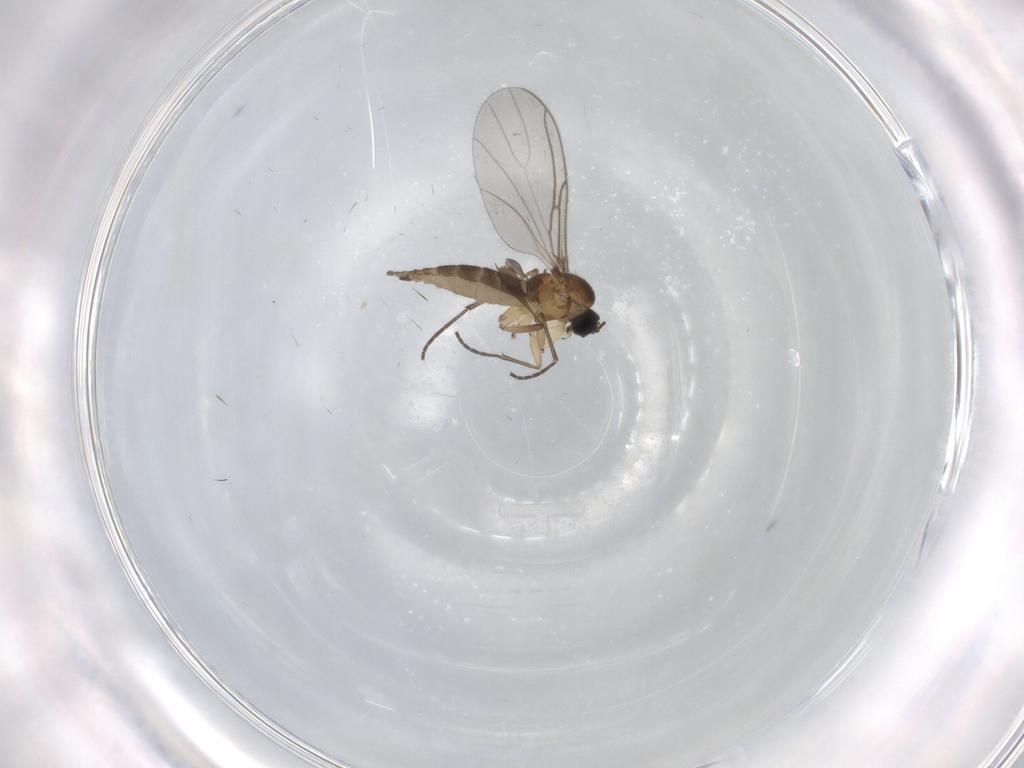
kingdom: Animalia
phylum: Arthropoda
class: Insecta
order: Diptera
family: Sciaridae
